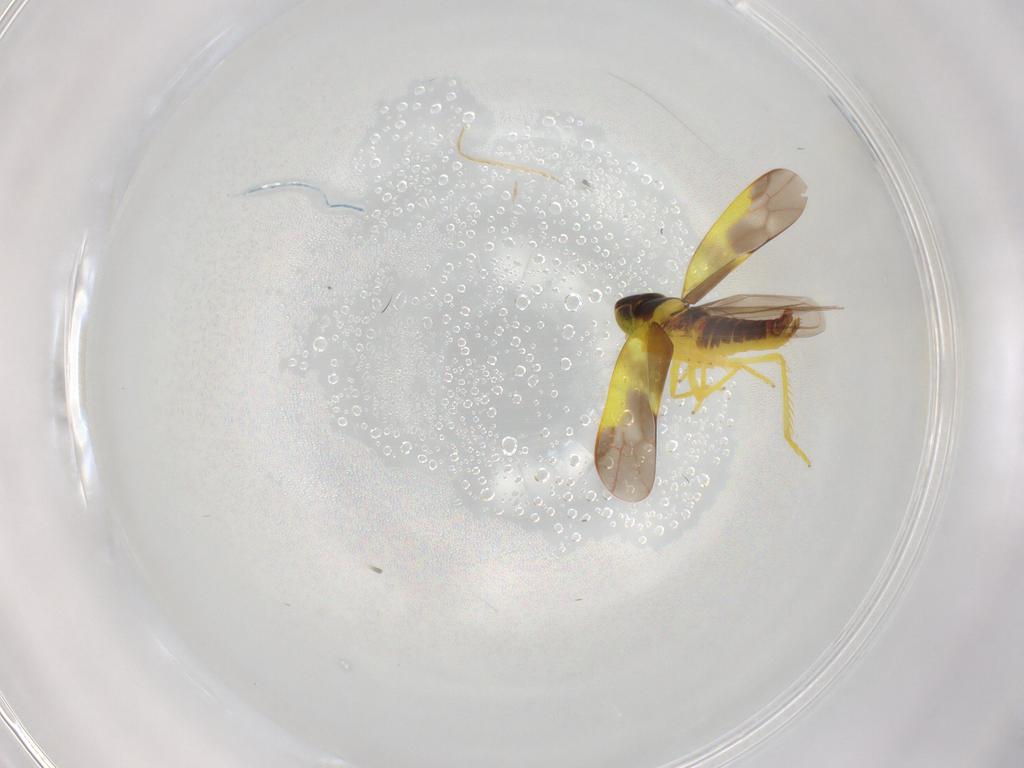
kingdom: Animalia
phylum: Arthropoda
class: Insecta
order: Hemiptera
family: Cicadellidae
